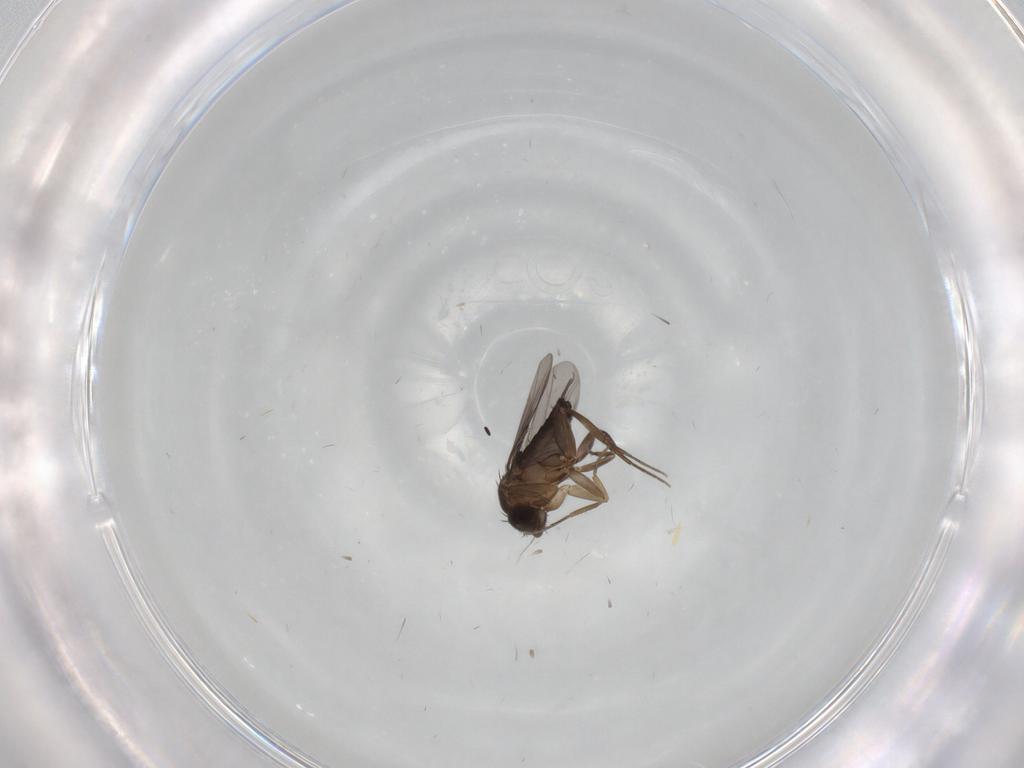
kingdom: Animalia
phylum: Arthropoda
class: Insecta
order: Diptera
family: Phoridae
